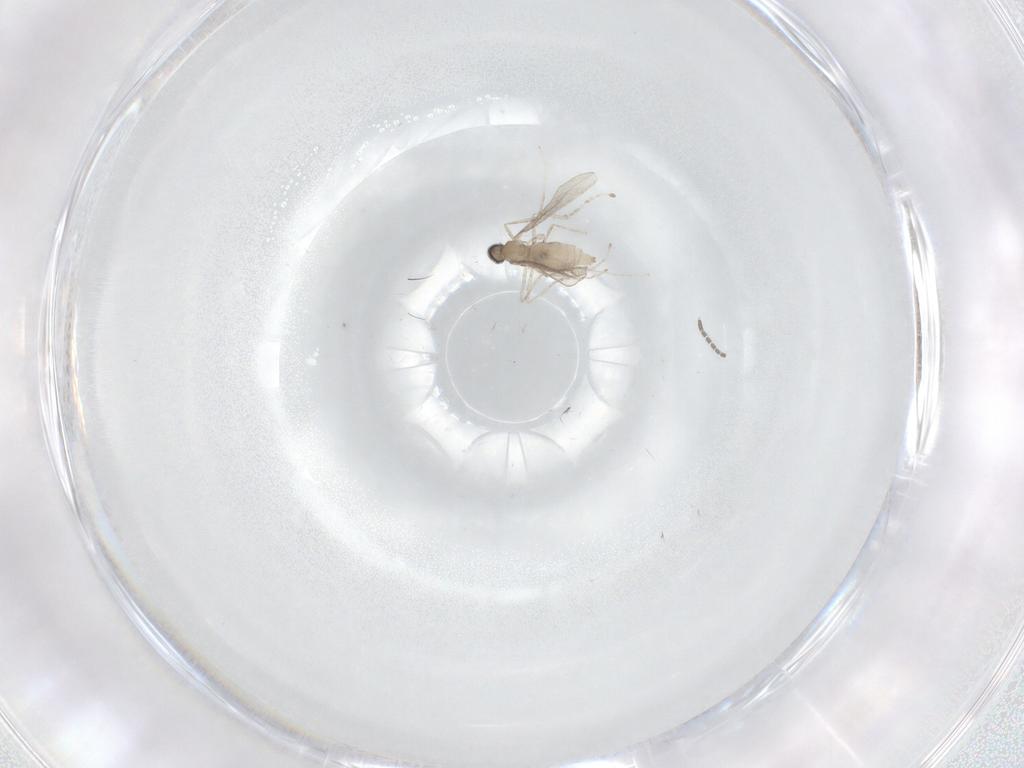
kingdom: Animalia
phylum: Arthropoda
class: Insecta
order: Diptera
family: Cecidomyiidae
